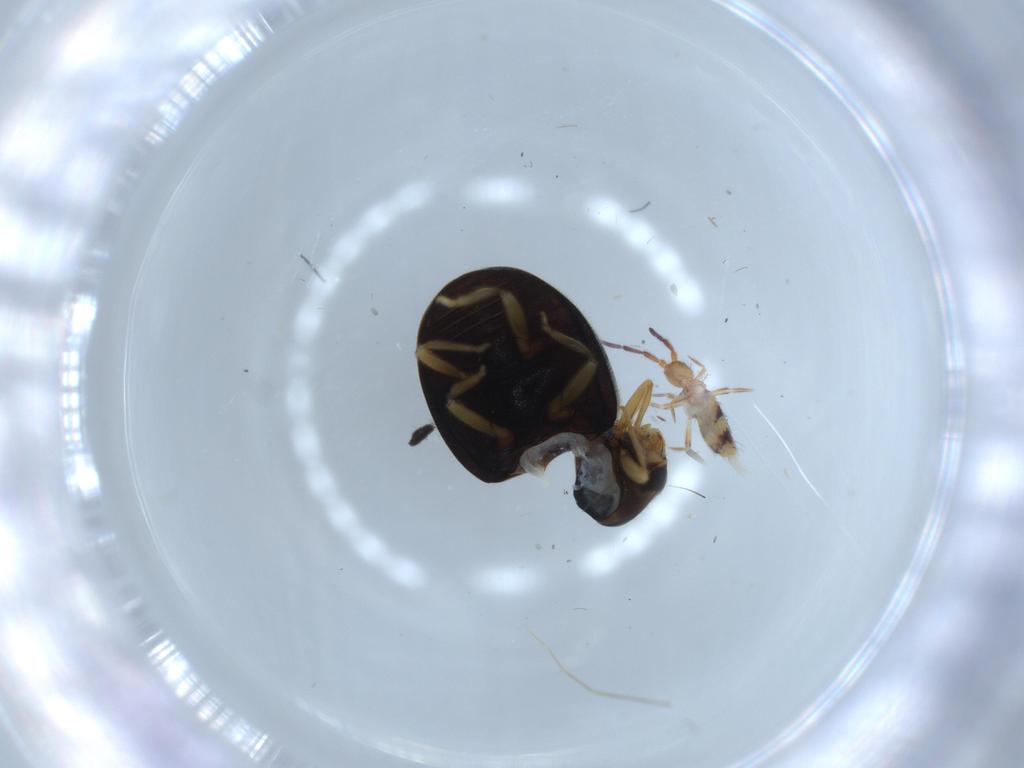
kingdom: Animalia
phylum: Arthropoda
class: Insecta
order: Coleoptera
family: Coccinellidae
